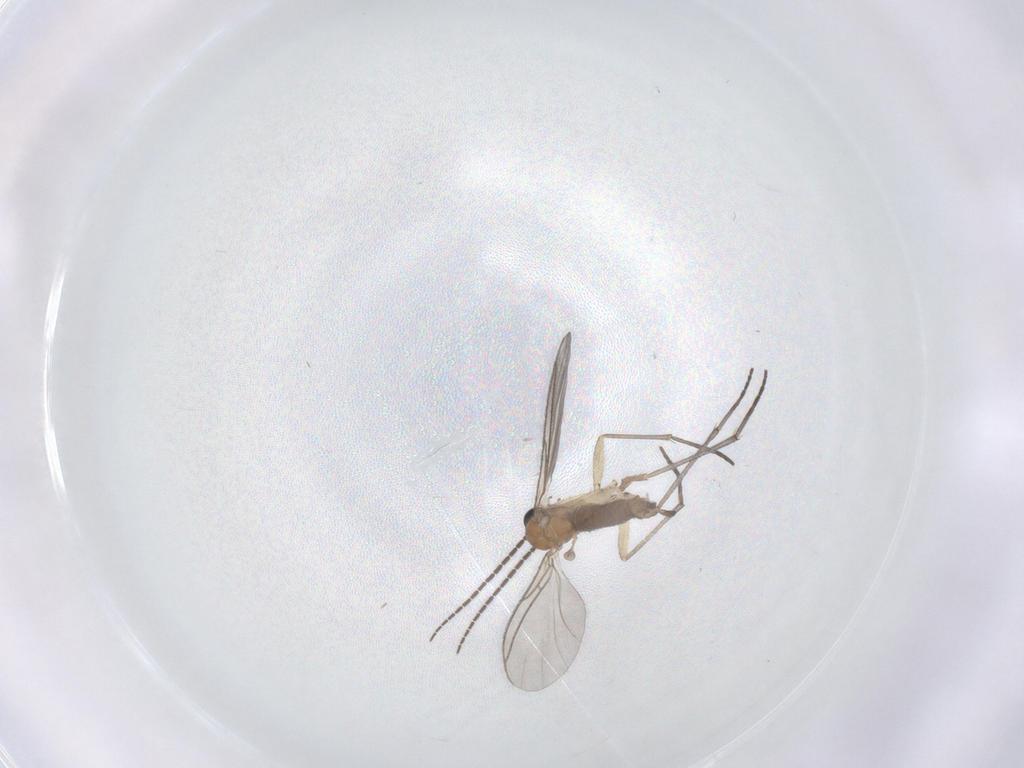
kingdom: Animalia
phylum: Arthropoda
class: Insecta
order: Diptera
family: Sciaridae
